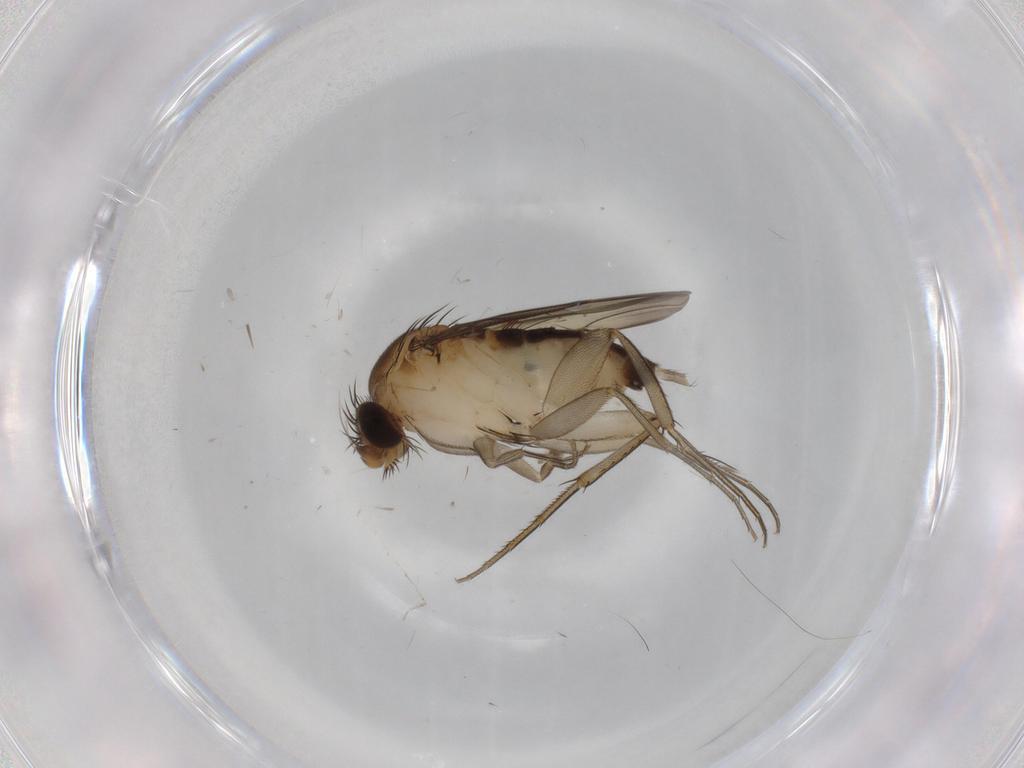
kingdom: Animalia
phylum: Arthropoda
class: Insecta
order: Diptera
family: Phoridae
